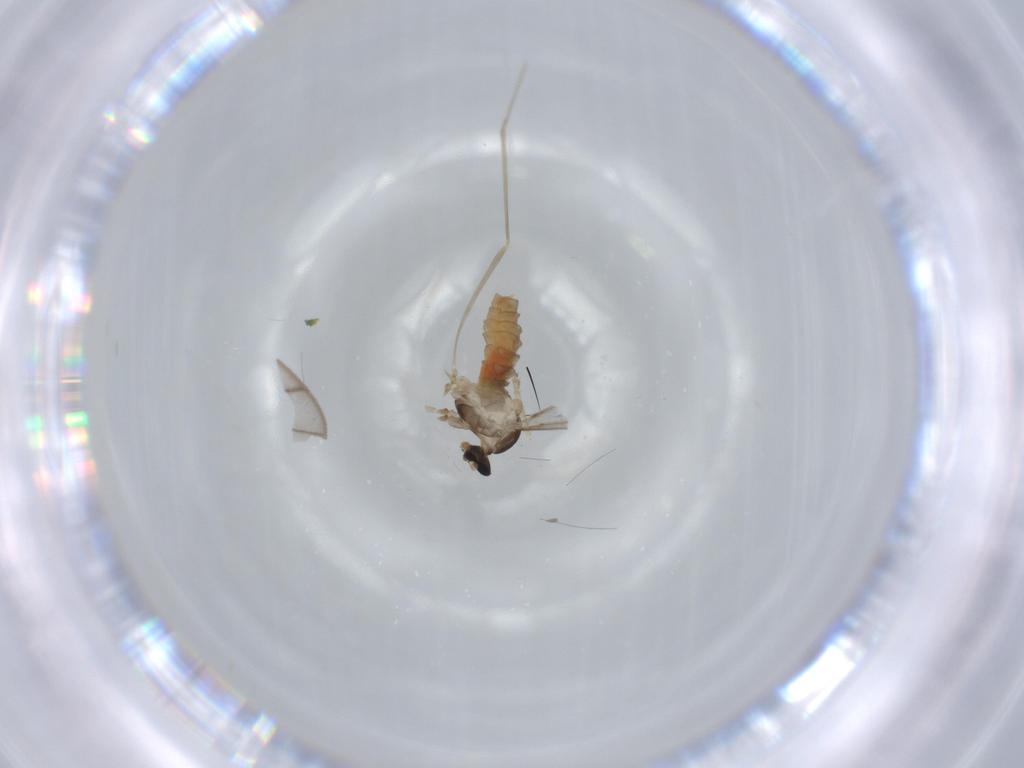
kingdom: Animalia
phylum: Arthropoda
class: Insecta
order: Diptera
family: Cecidomyiidae
